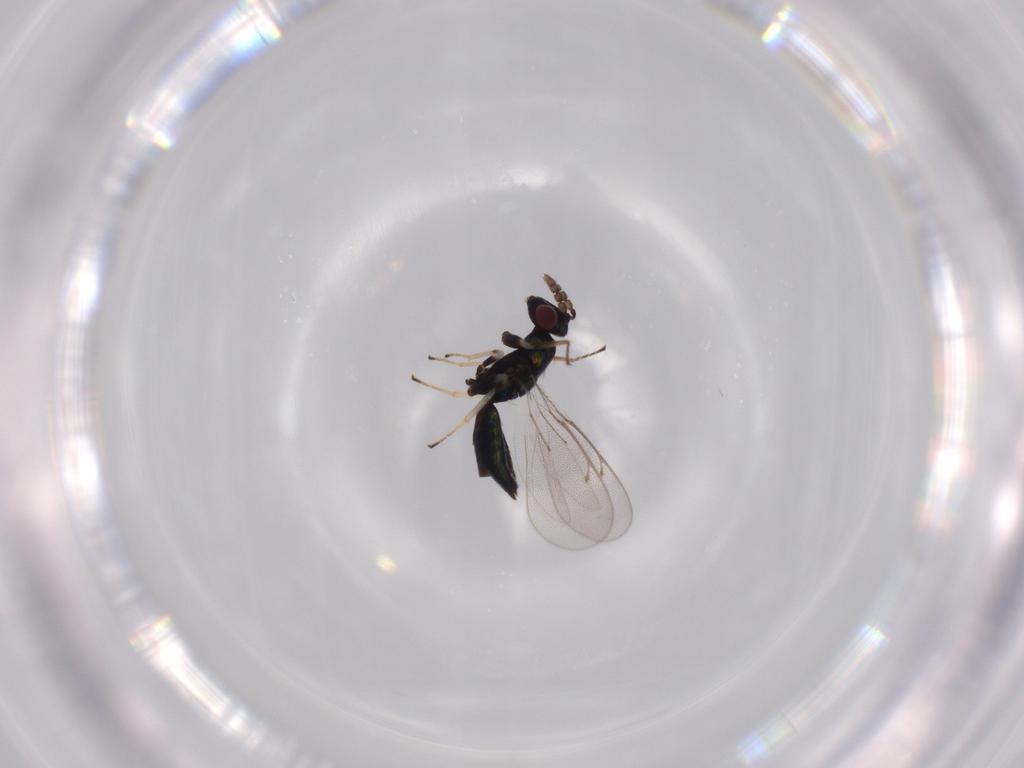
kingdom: Animalia
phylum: Arthropoda
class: Insecta
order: Hymenoptera
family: Eulophidae
